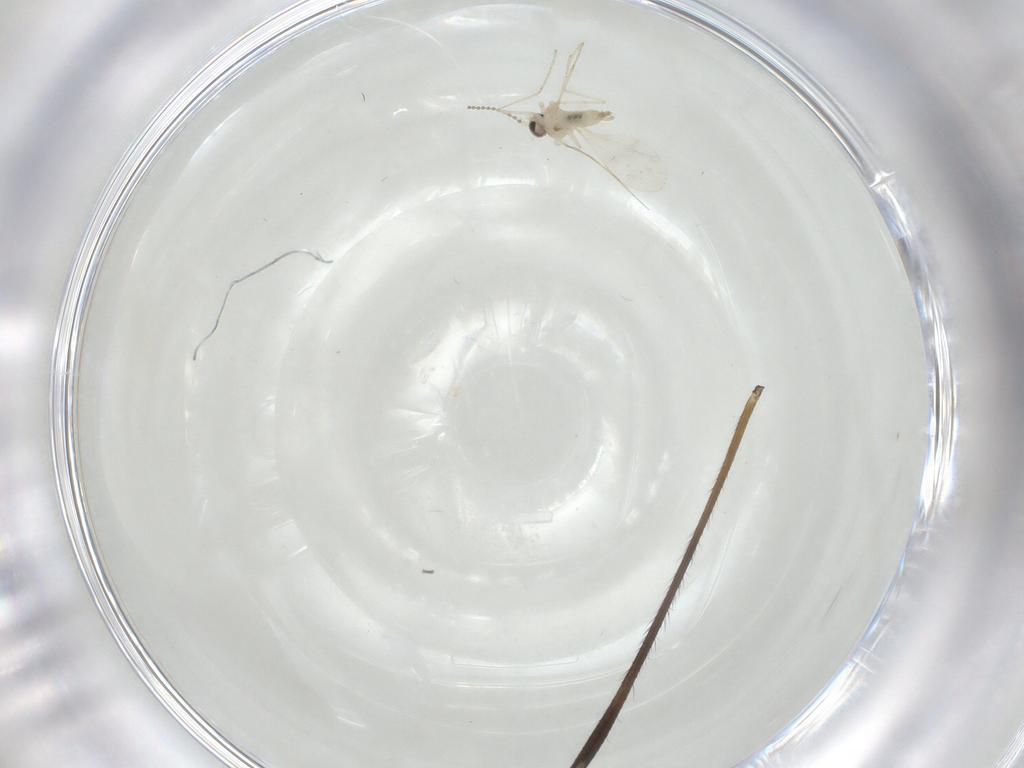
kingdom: Animalia
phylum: Arthropoda
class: Insecta
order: Diptera
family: Limoniidae
